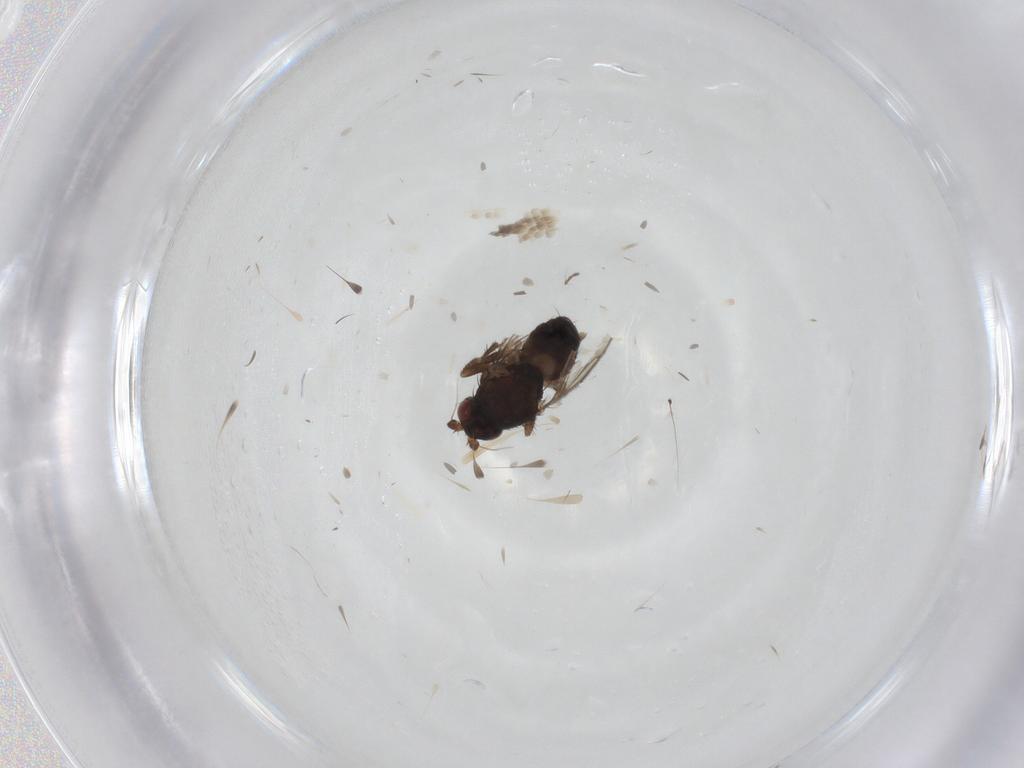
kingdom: Animalia
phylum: Arthropoda
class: Insecta
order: Diptera
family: Sphaeroceridae
